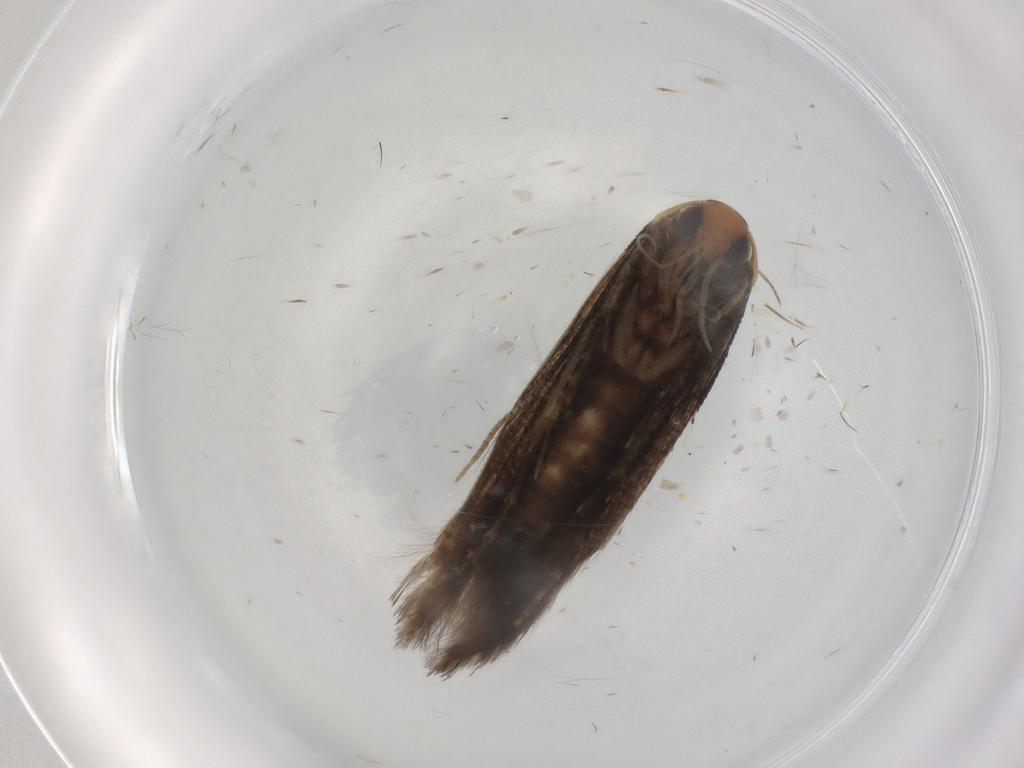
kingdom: Animalia
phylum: Arthropoda
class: Insecta
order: Lepidoptera
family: Cosmopterigidae
